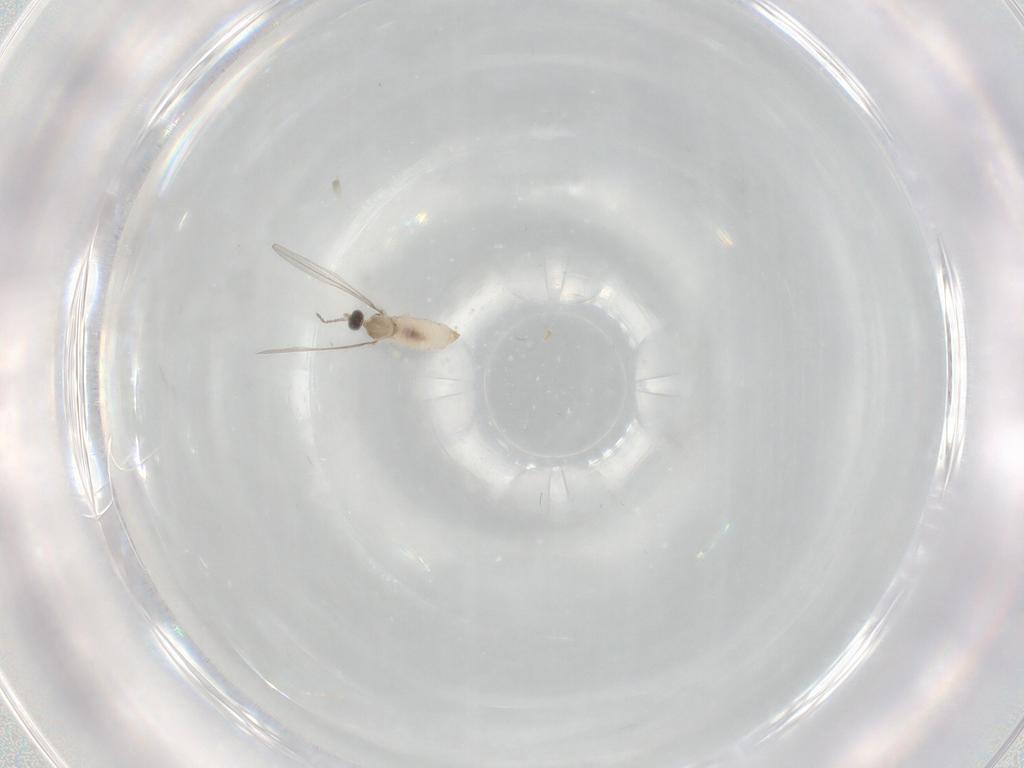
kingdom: Animalia
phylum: Arthropoda
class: Insecta
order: Diptera
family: Cecidomyiidae
